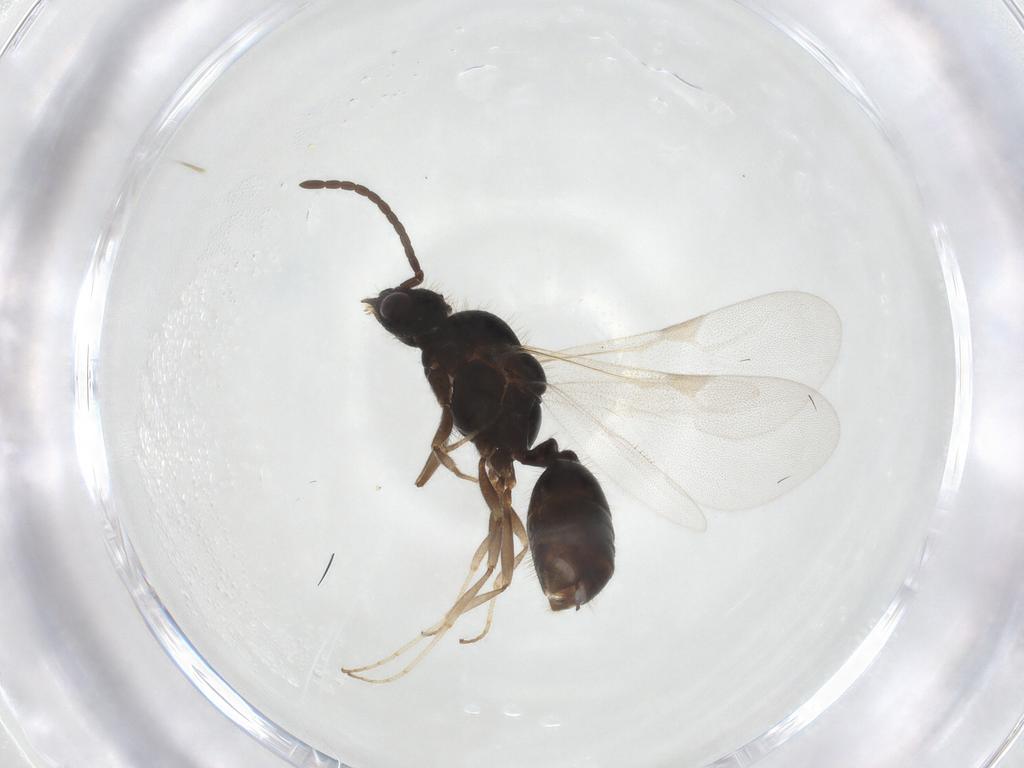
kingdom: Animalia
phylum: Arthropoda
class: Insecta
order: Hymenoptera
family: Formicidae
